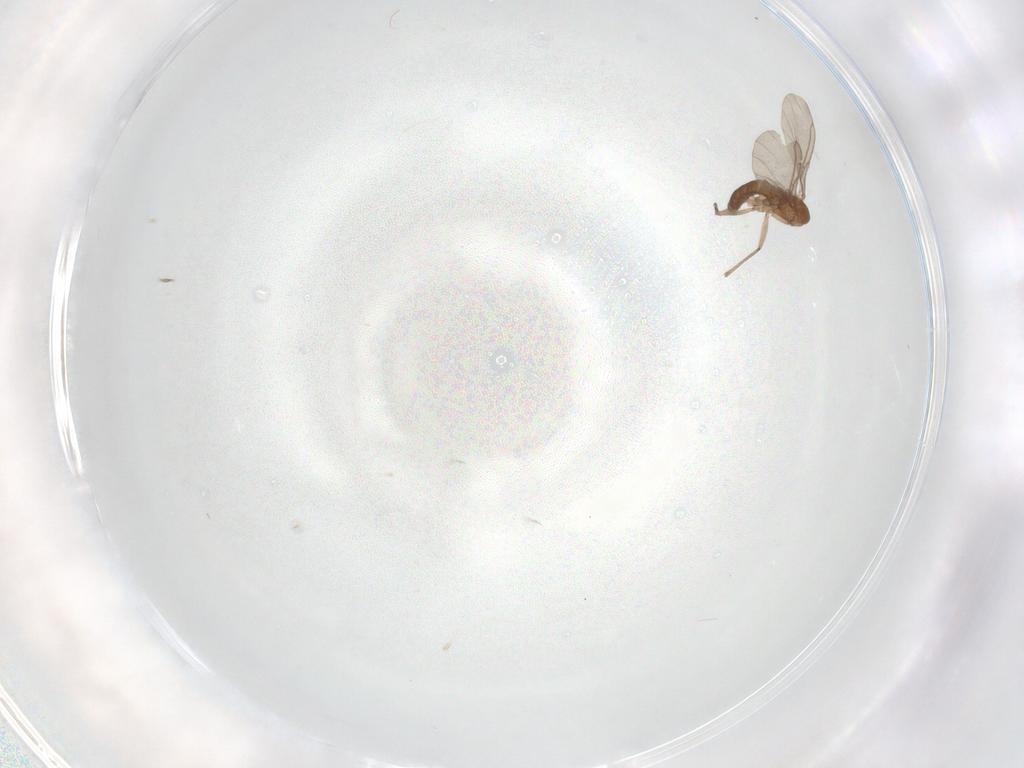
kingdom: Animalia
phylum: Arthropoda
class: Insecta
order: Diptera
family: Sciaridae
